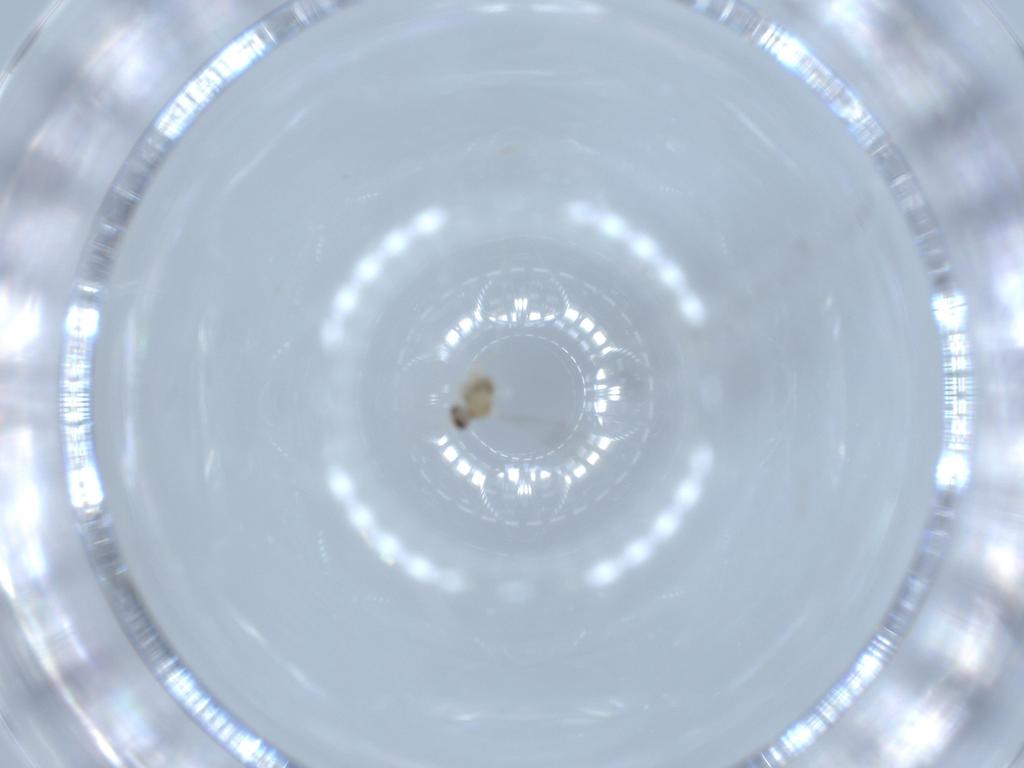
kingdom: Animalia
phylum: Arthropoda
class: Insecta
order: Diptera
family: Cecidomyiidae
